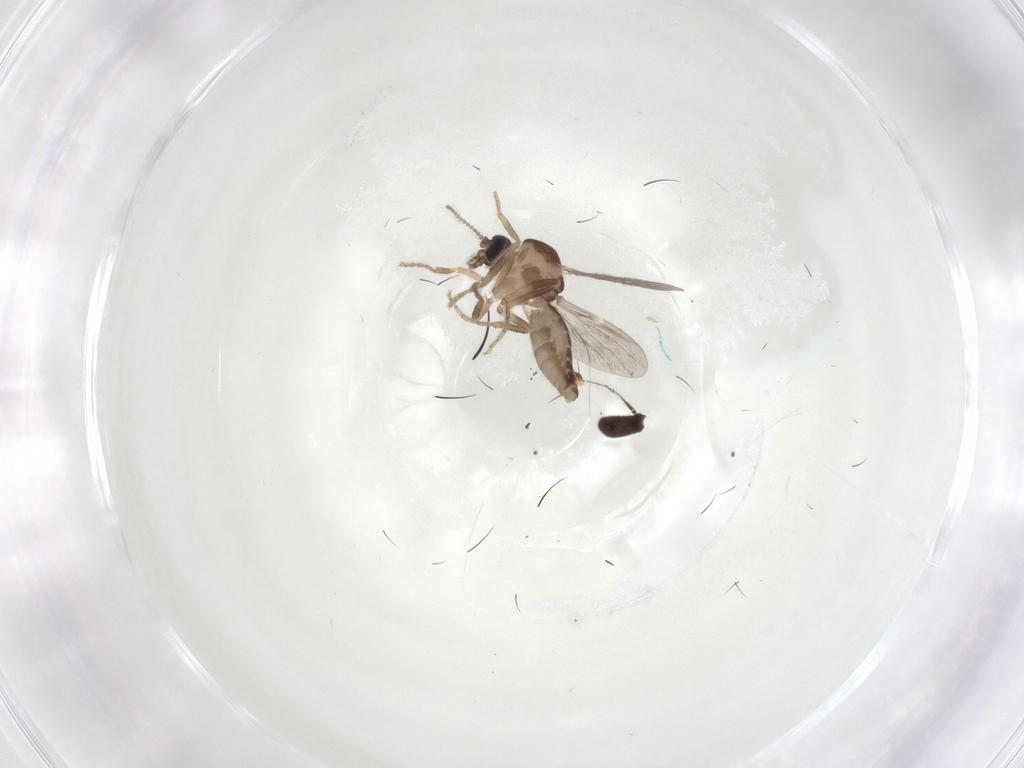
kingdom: Animalia
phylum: Arthropoda
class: Insecta
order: Diptera
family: Ceratopogonidae
